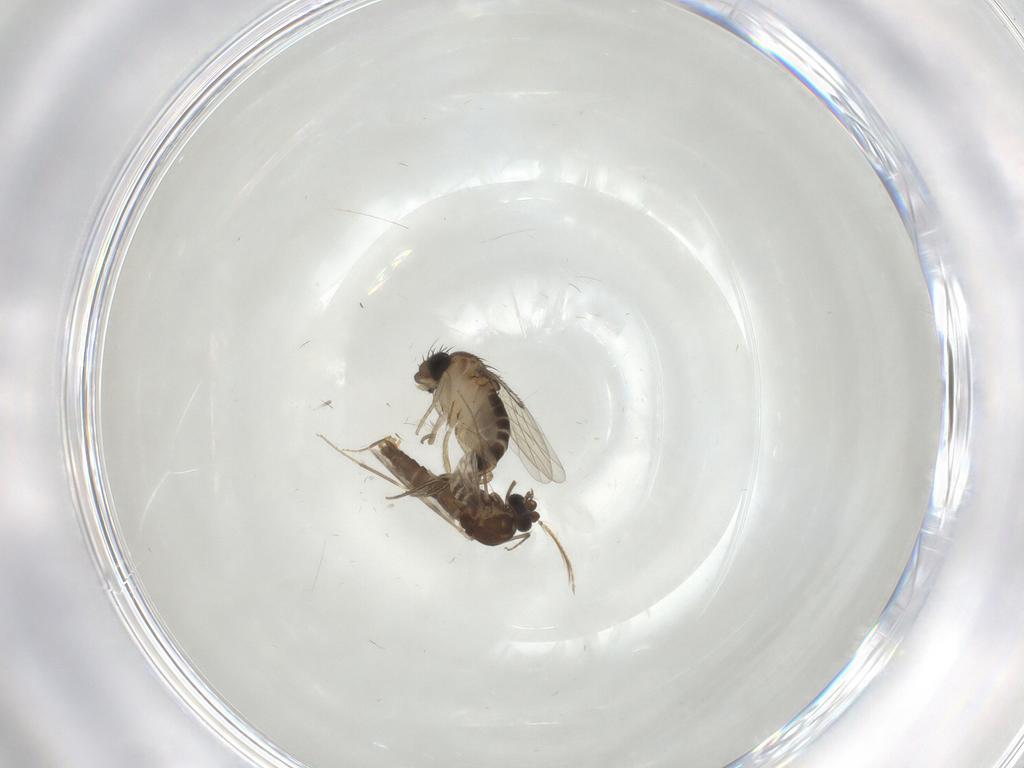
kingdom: Animalia
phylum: Arthropoda
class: Insecta
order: Diptera
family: Ceratopogonidae
